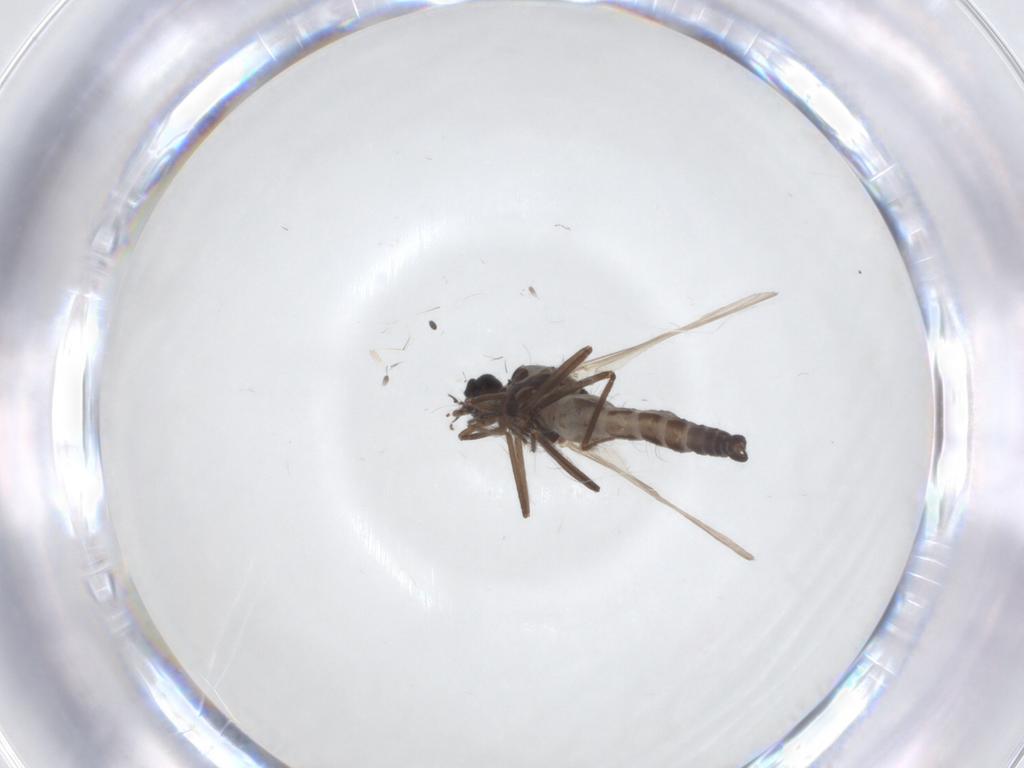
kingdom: Animalia
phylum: Arthropoda
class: Insecta
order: Diptera
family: Ceratopogonidae
